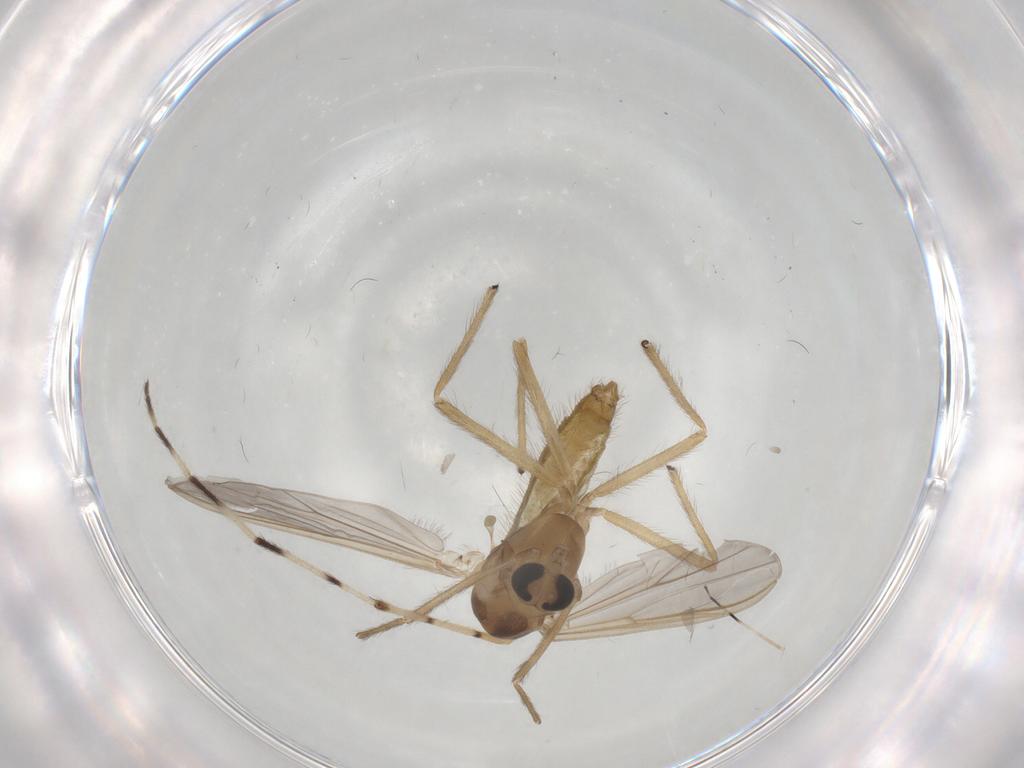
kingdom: Animalia
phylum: Arthropoda
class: Insecta
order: Diptera
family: Chironomidae
